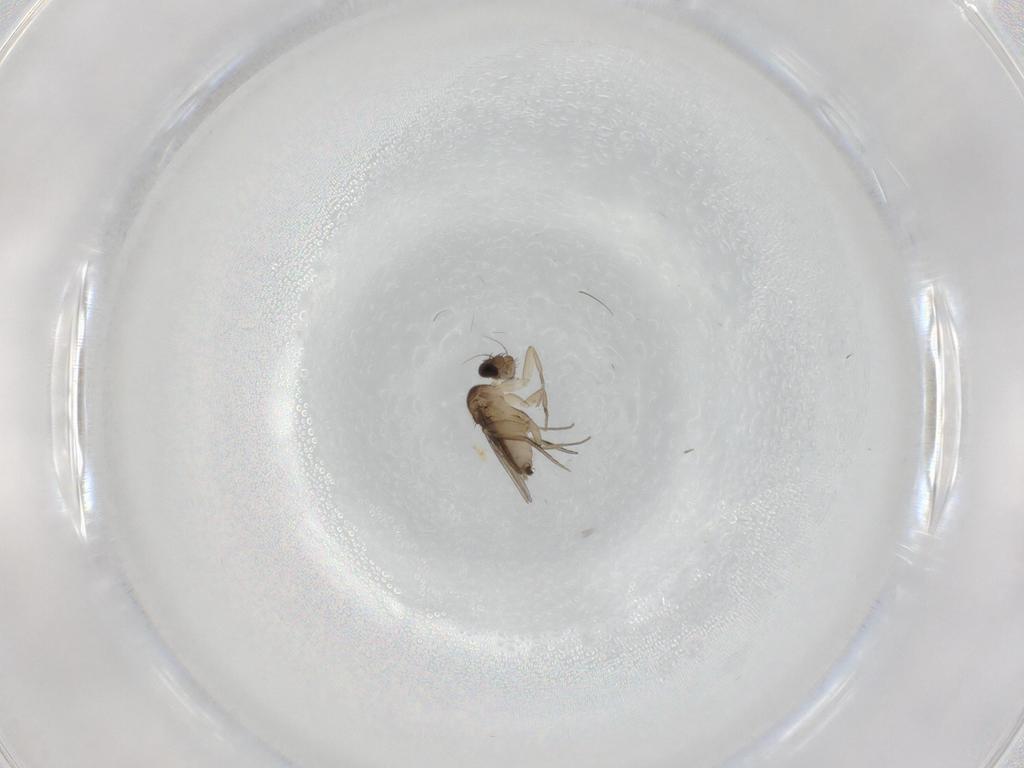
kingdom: Animalia
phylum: Arthropoda
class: Insecta
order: Diptera
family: Phoridae
